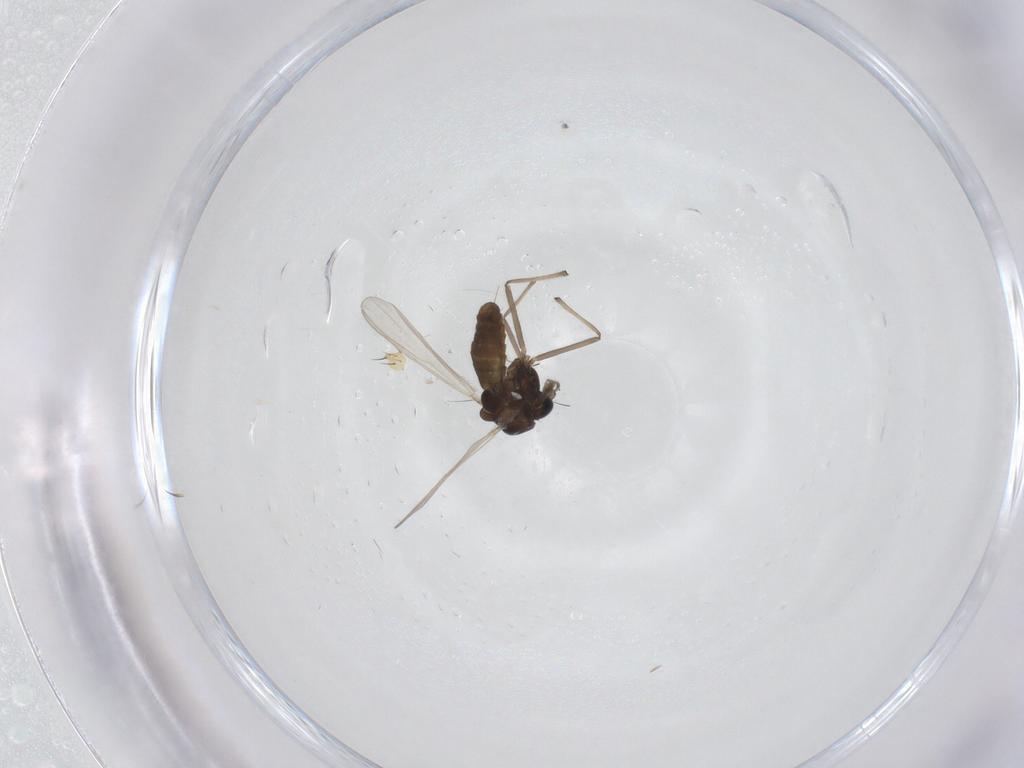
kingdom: Animalia
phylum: Arthropoda
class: Insecta
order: Diptera
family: Chironomidae
